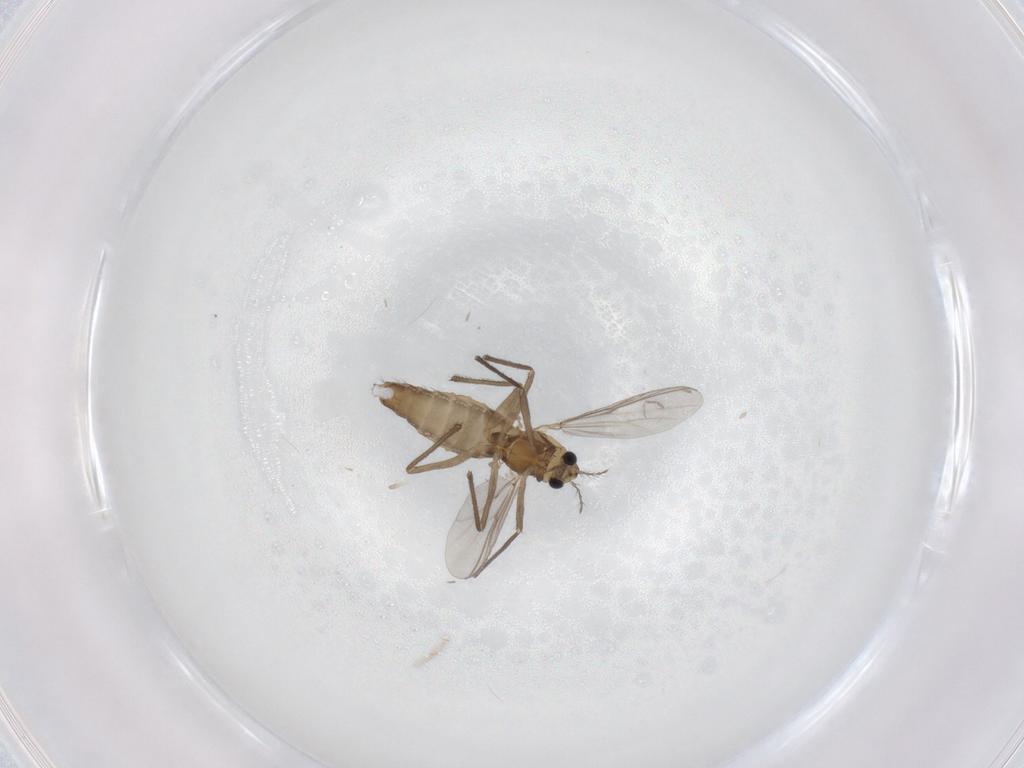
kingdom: Animalia
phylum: Arthropoda
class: Insecta
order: Diptera
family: Chironomidae
